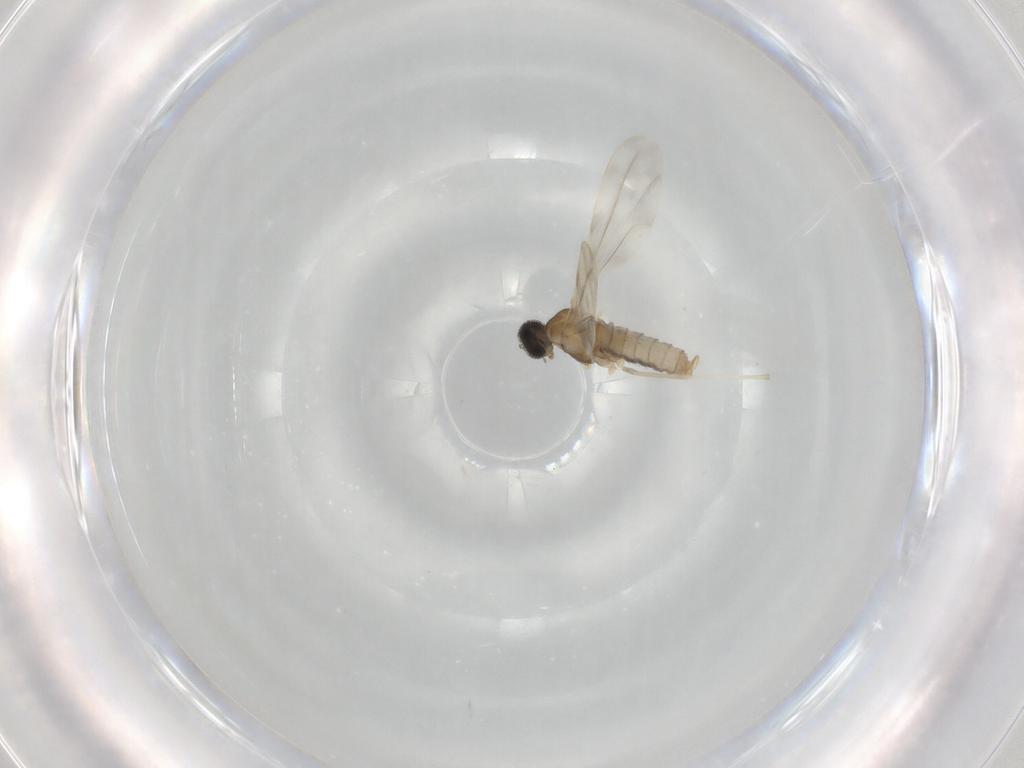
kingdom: Animalia
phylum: Arthropoda
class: Insecta
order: Diptera
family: Cecidomyiidae
